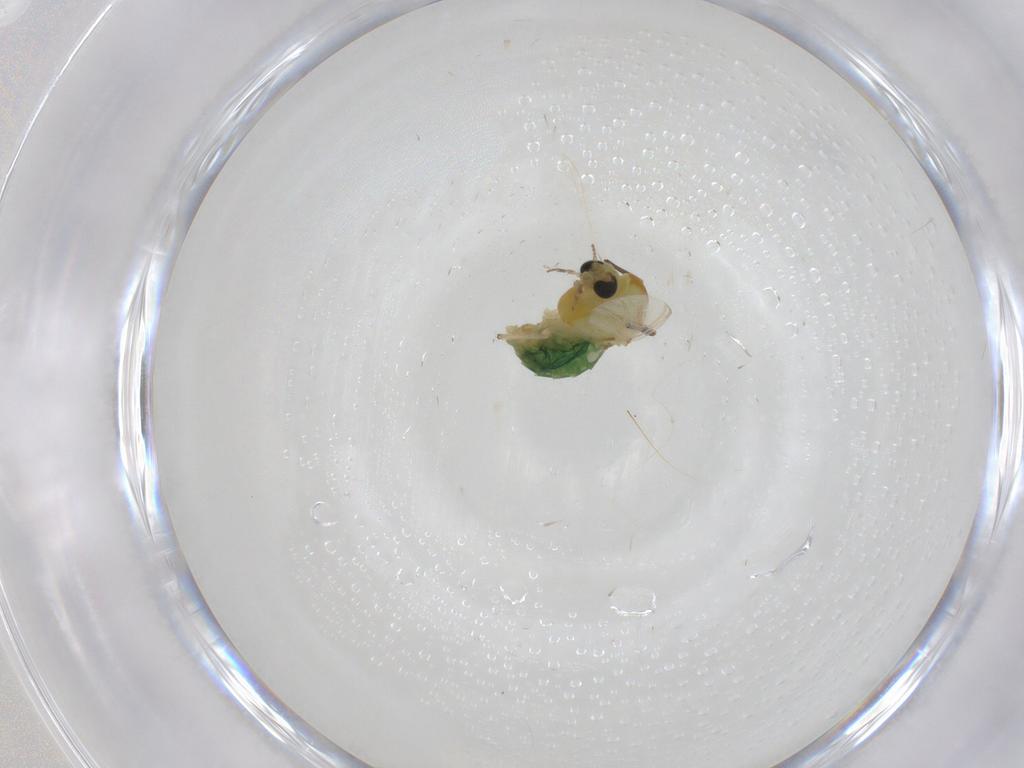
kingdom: Animalia
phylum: Arthropoda
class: Insecta
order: Diptera
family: Chironomidae
